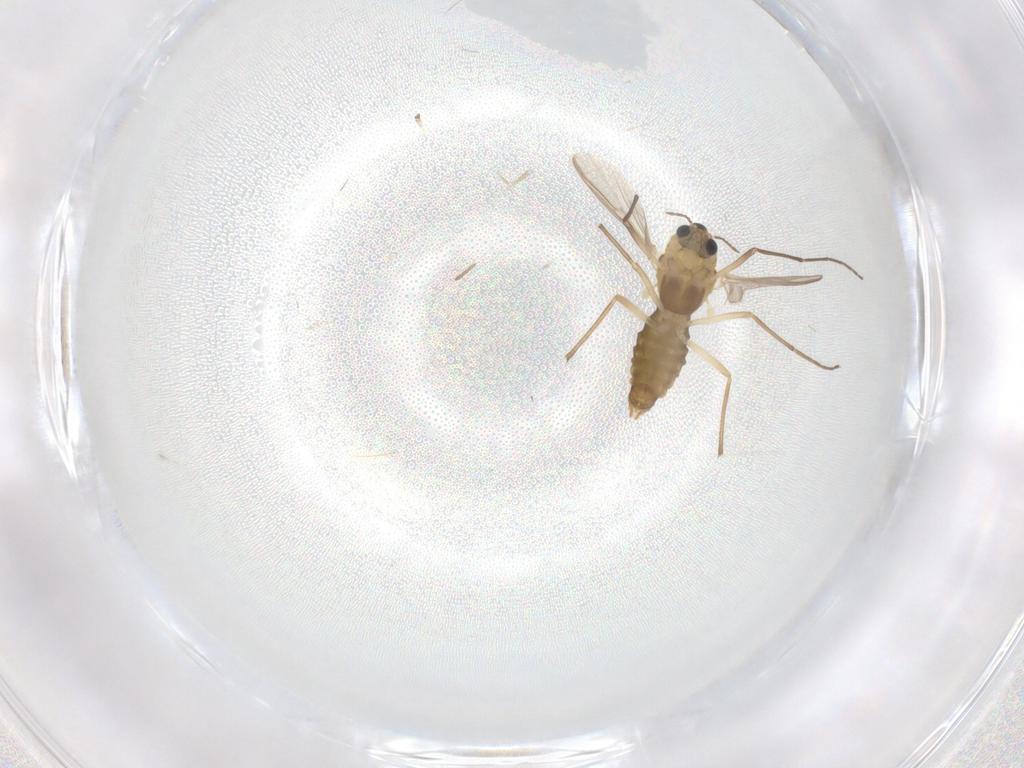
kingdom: Animalia
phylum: Arthropoda
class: Insecta
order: Diptera
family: Chironomidae
